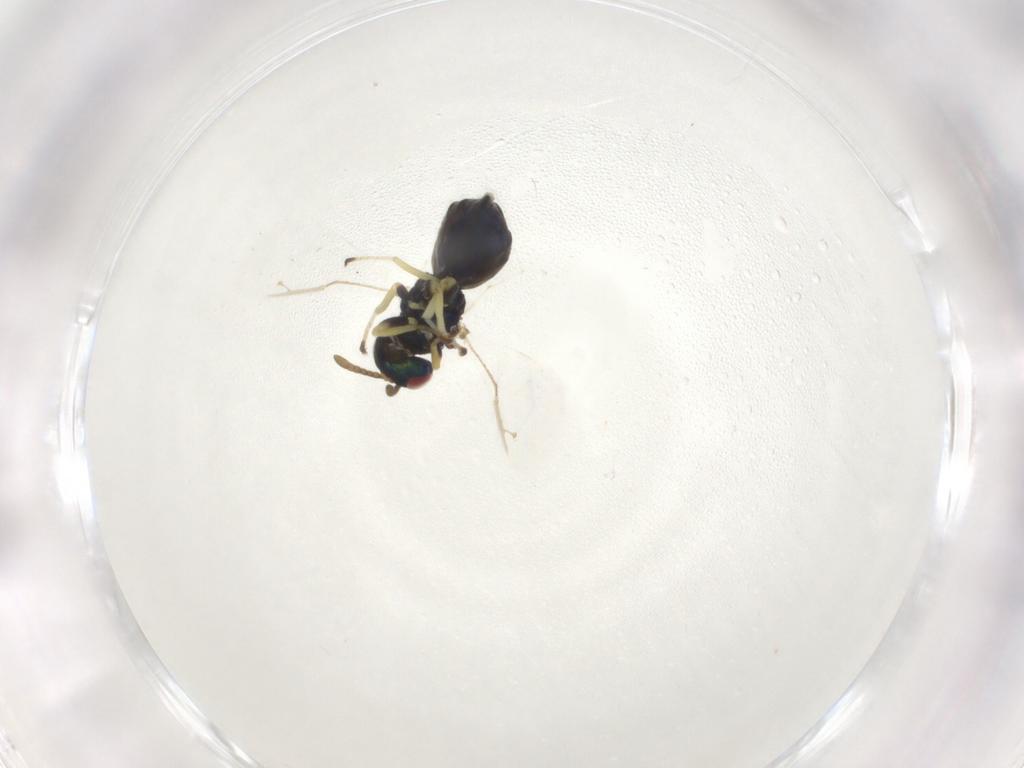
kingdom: Animalia
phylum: Arthropoda
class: Insecta
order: Hymenoptera
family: Pteromalidae
